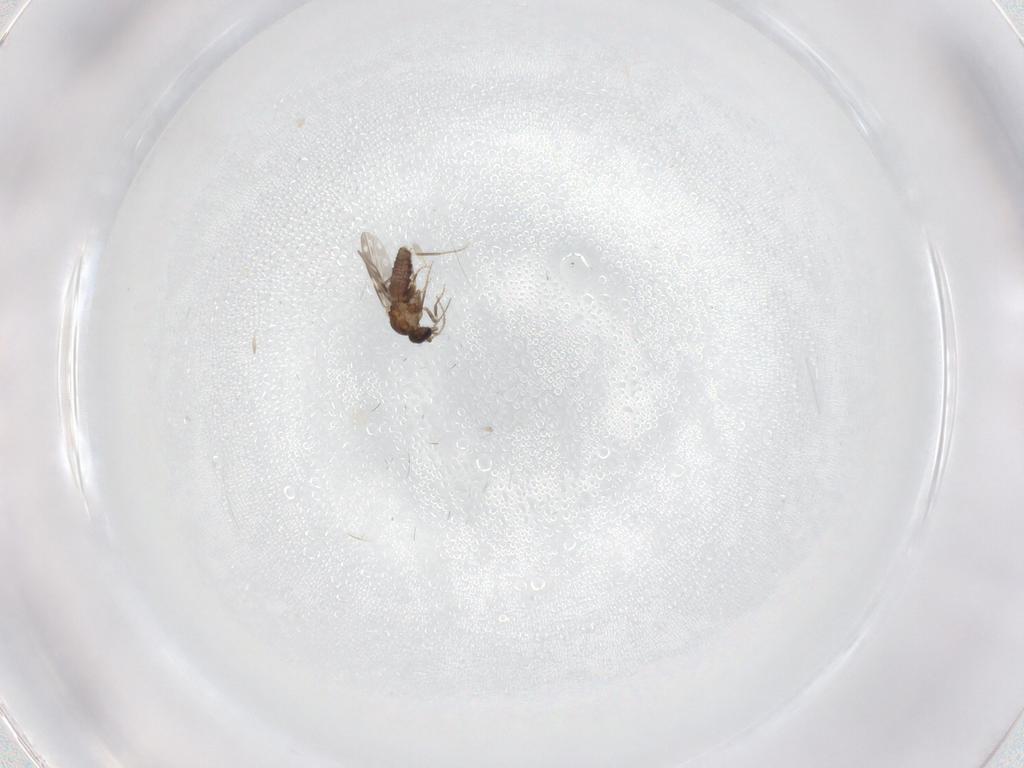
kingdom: Animalia
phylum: Arthropoda
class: Insecta
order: Diptera
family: Ceratopogonidae
